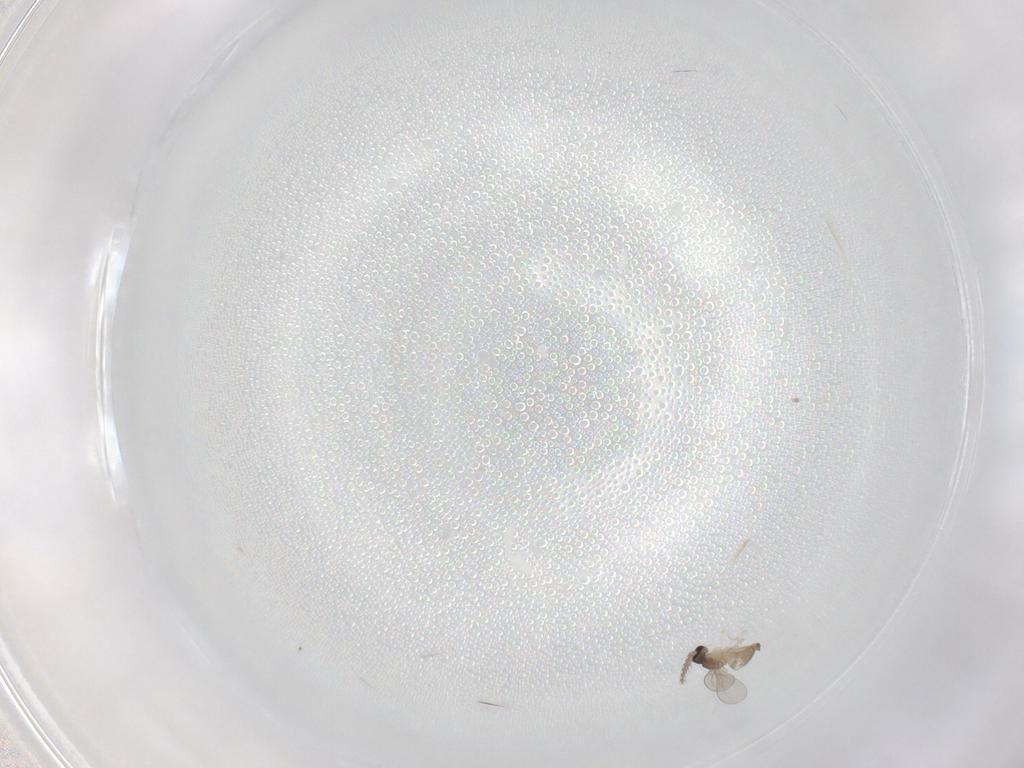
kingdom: Animalia
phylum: Arthropoda
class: Insecta
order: Diptera
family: Cecidomyiidae
